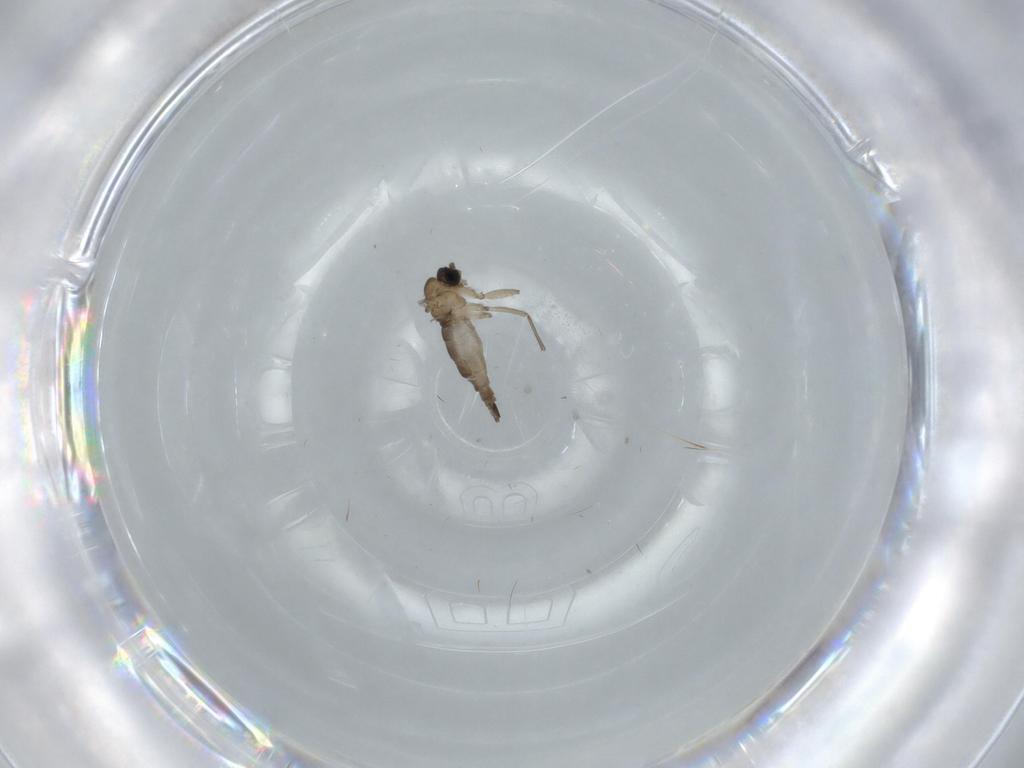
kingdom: Animalia
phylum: Arthropoda
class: Insecta
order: Diptera
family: Cecidomyiidae
